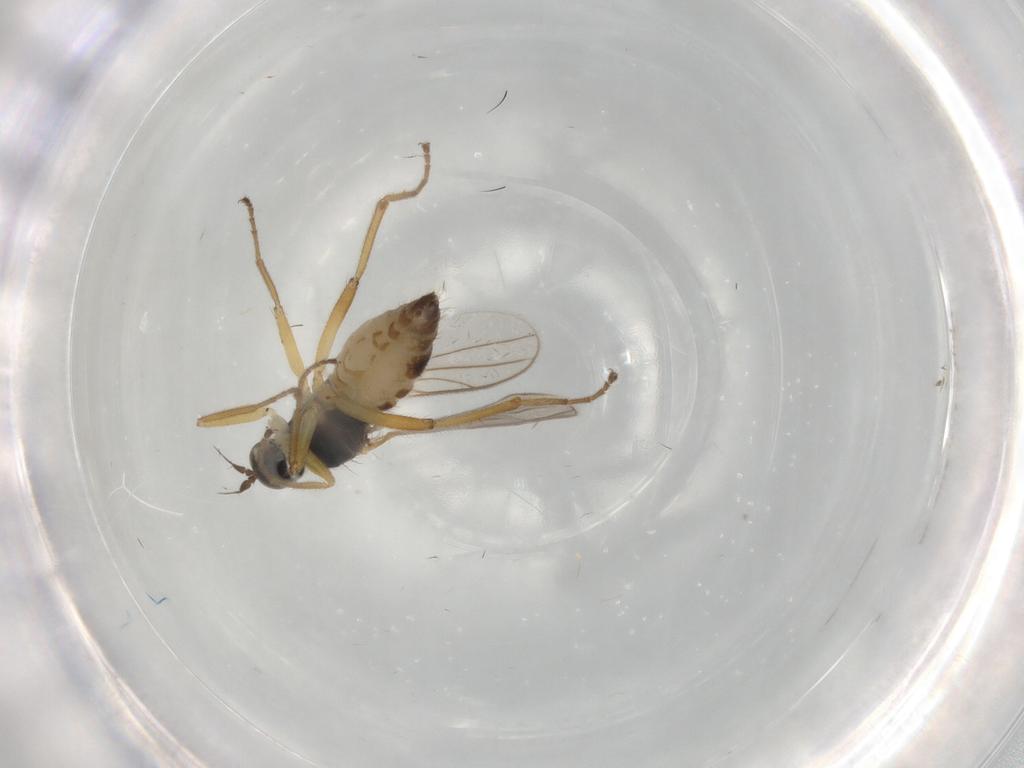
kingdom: Animalia
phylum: Arthropoda
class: Insecta
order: Diptera
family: Hybotidae
